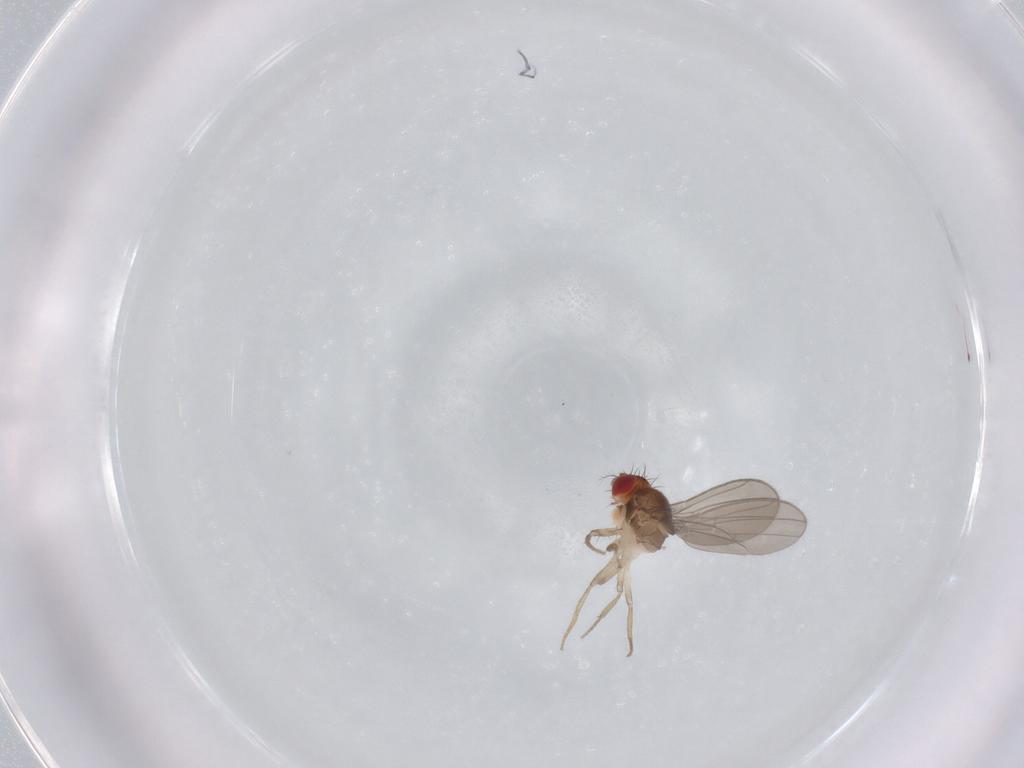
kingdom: Animalia
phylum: Arthropoda
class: Insecta
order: Diptera
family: Drosophilidae
